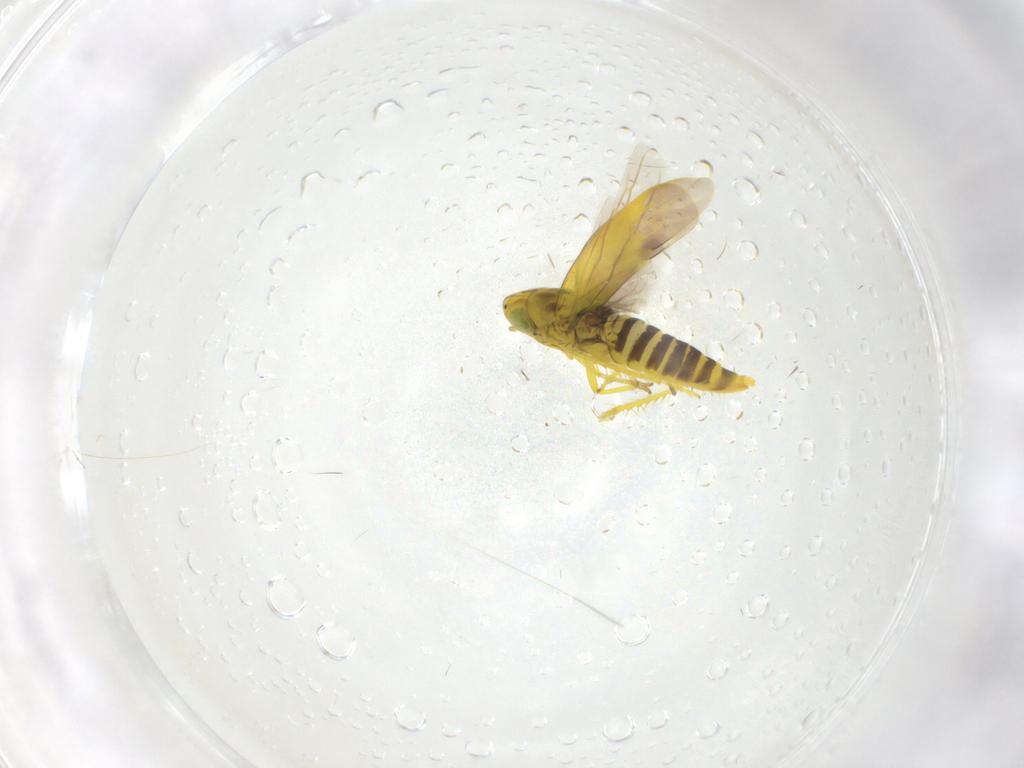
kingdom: Animalia
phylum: Arthropoda
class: Insecta
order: Hemiptera
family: Cicadellidae
